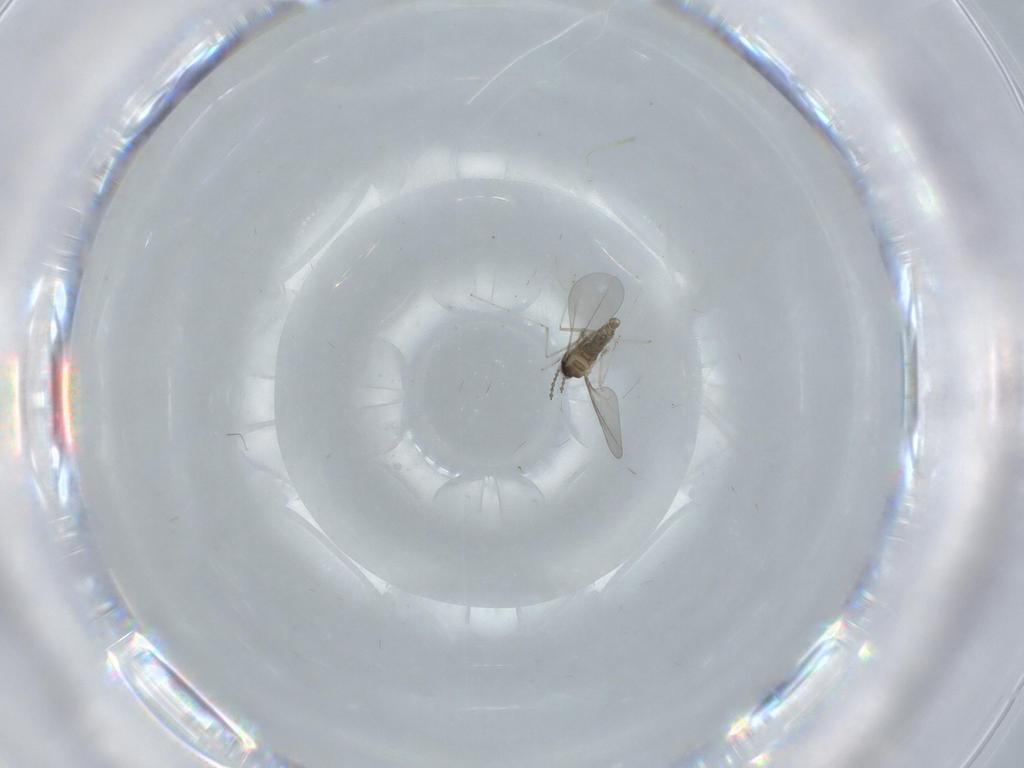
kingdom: Animalia
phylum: Arthropoda
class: Insecta
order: Diptera
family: Cecidomyiidae
